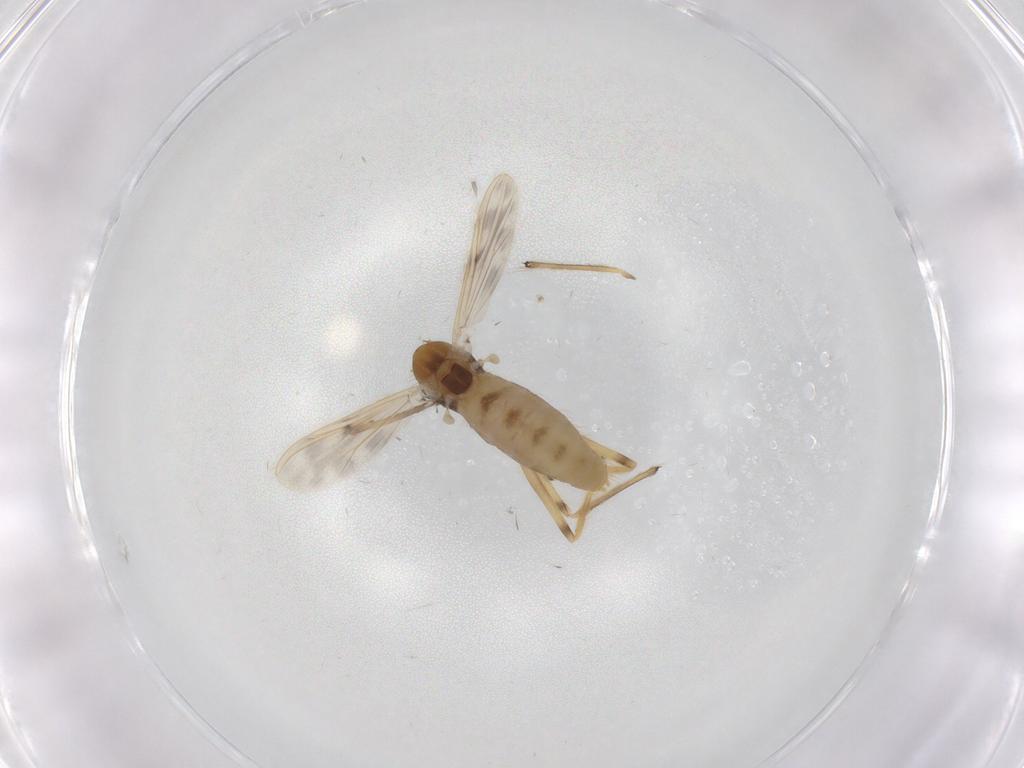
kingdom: Animalia
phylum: Arthropoda
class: Insecta
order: Diptera
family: Chironomidae
